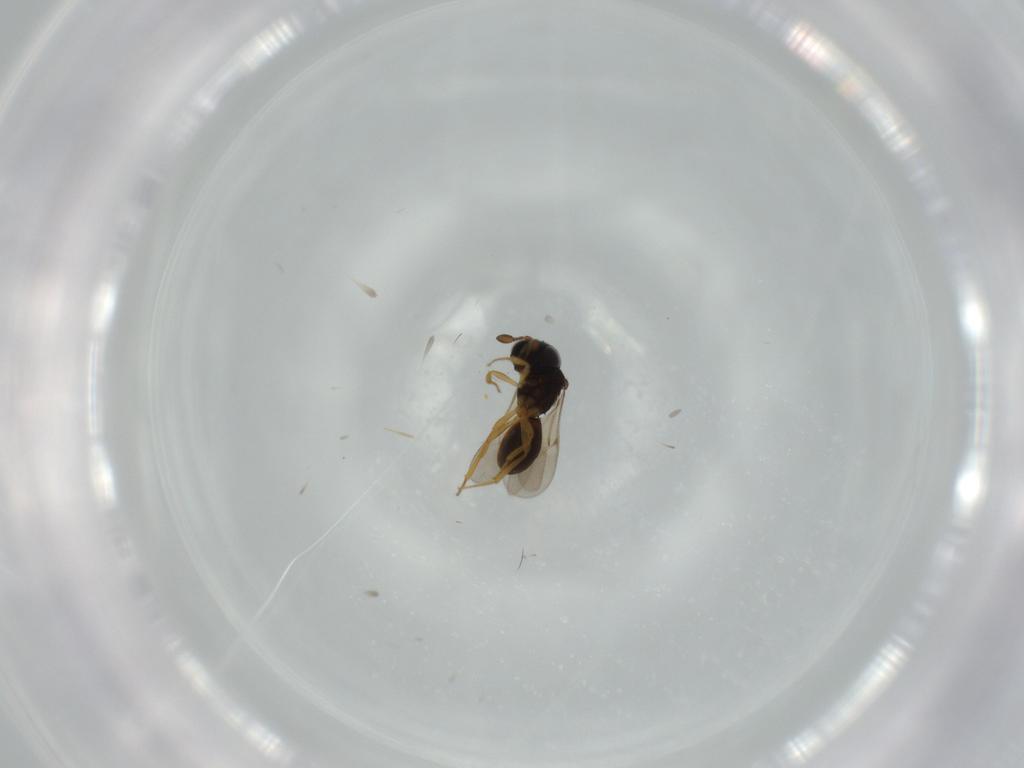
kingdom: Animalia
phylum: Arthropoda
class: Insecta
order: Hymenoptera
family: Scelionidae
